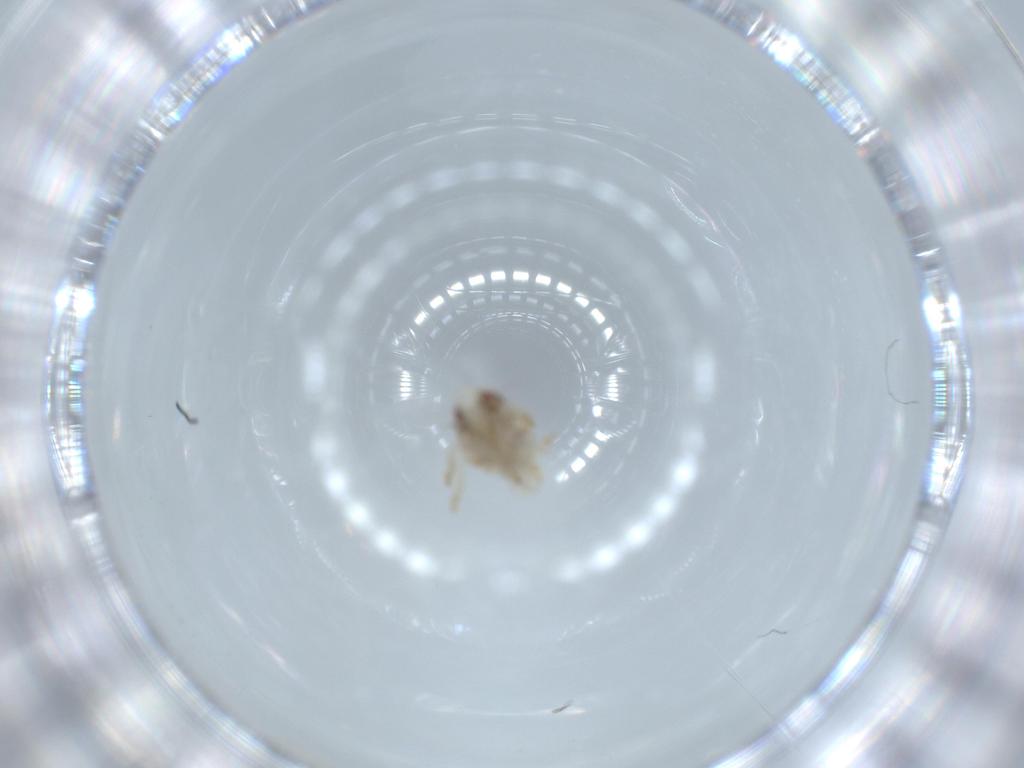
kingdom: Animalia
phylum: Arthropoda
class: Insecta
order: Hemiptera
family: Acanaloniidae
